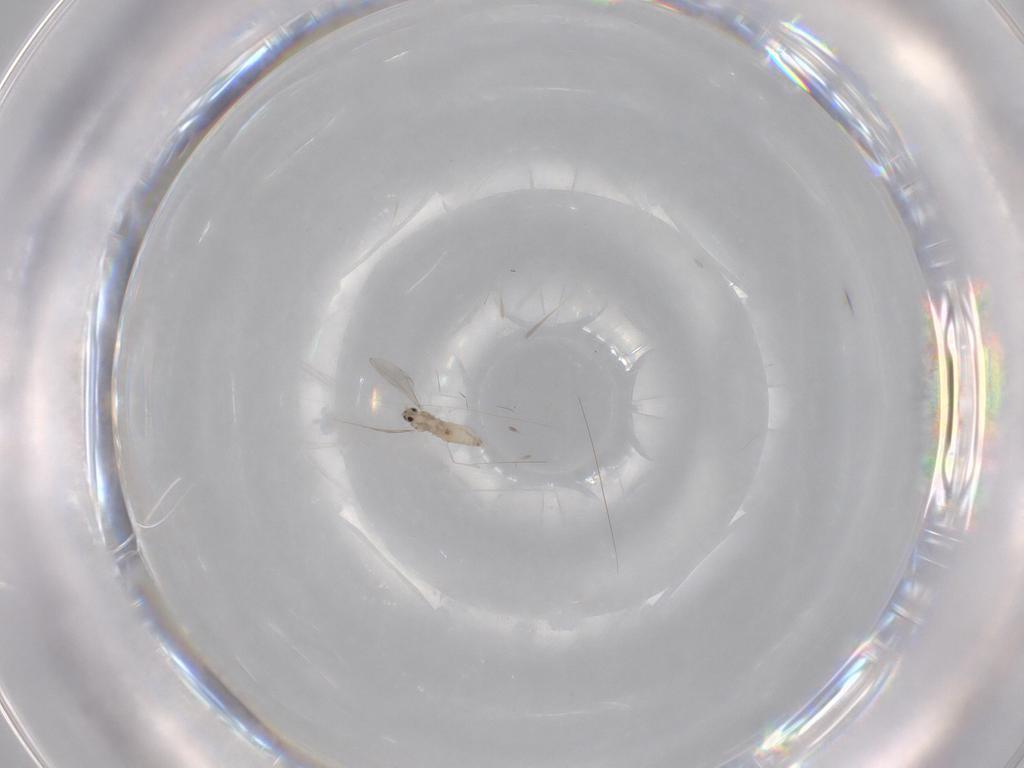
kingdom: Animalia
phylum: Arthropoda
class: Insecta
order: Diptera
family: Cecidomyiidae
